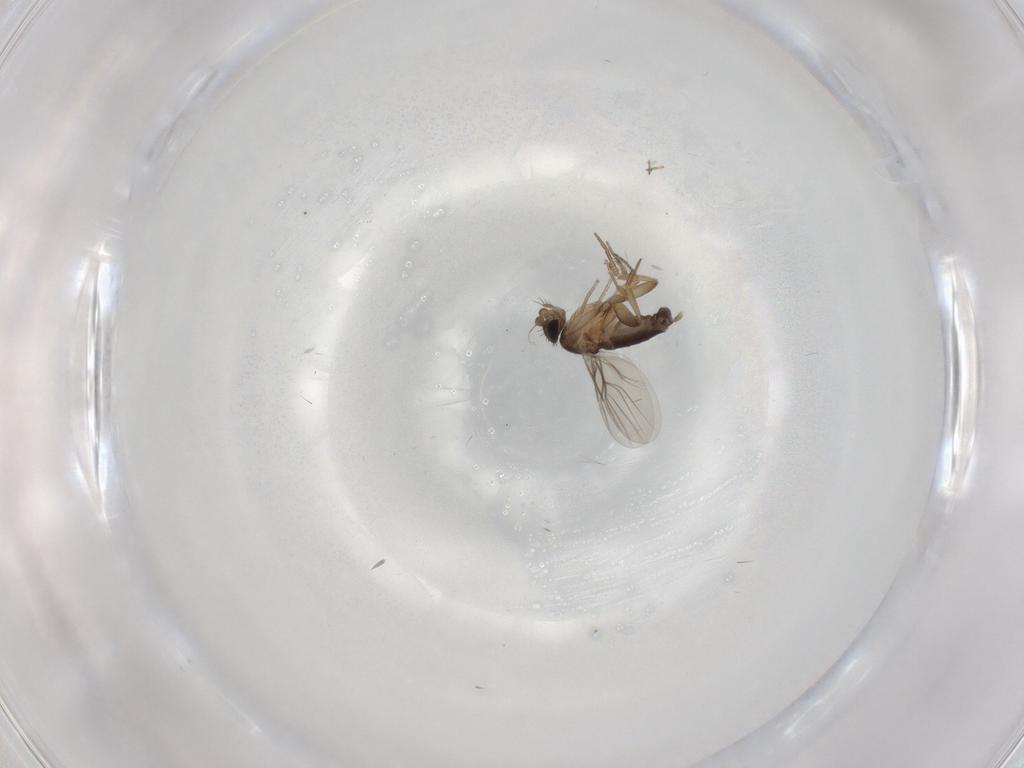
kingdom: Animalia
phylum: Arthropoda
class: Insecta
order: Diptera
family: Phoridae
